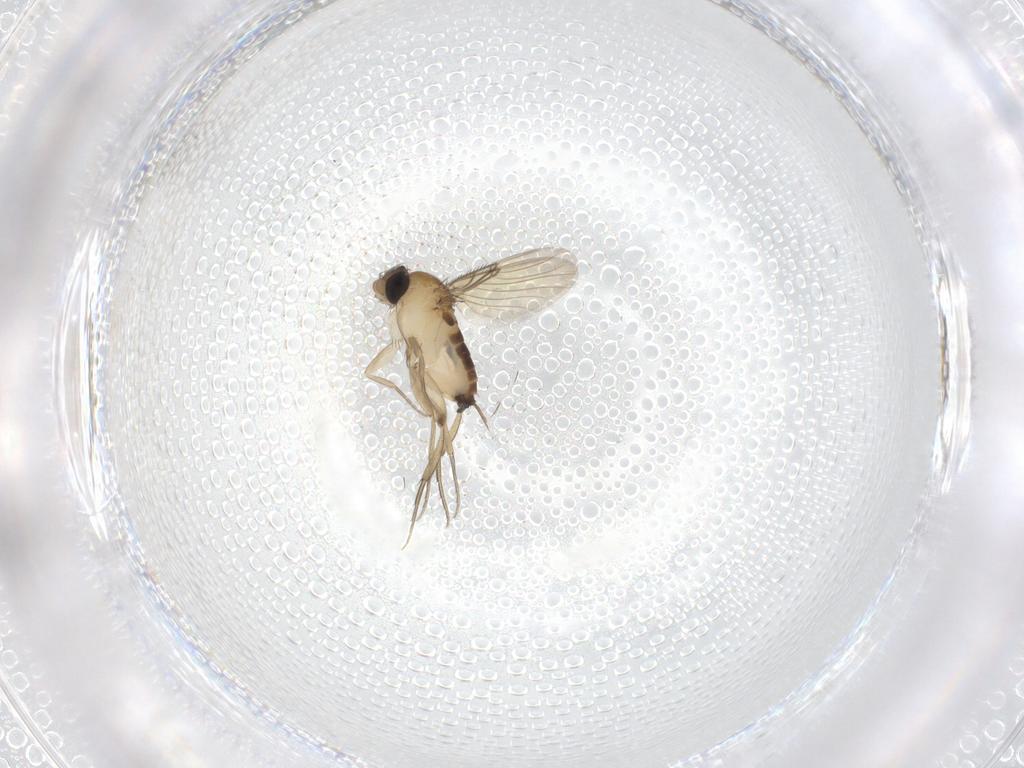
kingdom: Animalia
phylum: Arthropoda
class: Insecta
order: Diptera
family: Phoridae
